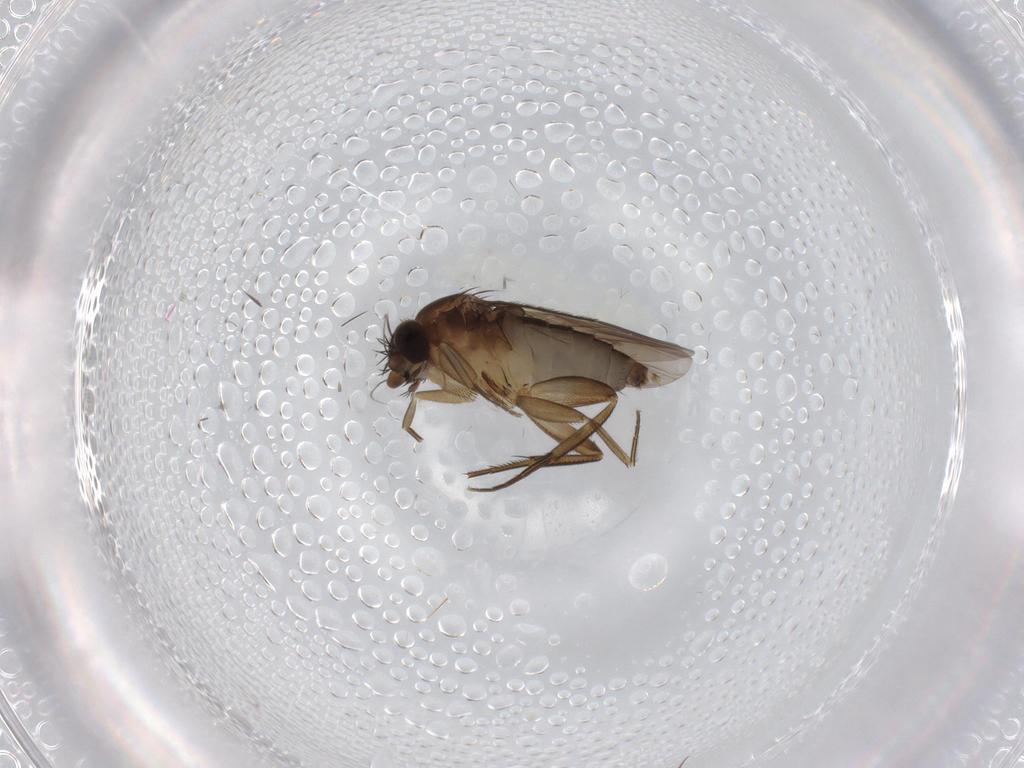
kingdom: Animalia
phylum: Arthropoda
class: Insecta
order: Diptera
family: Phoridae
